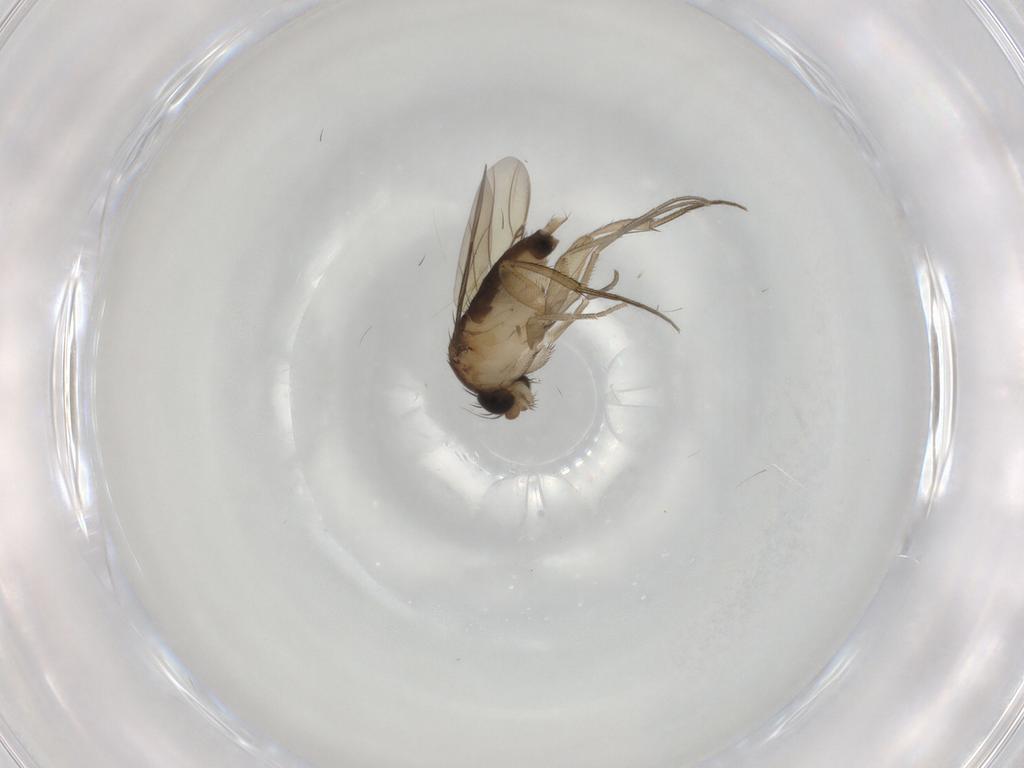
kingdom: Animalia
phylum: Arthropoda
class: Insecta
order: Diptera
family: Phoridae
